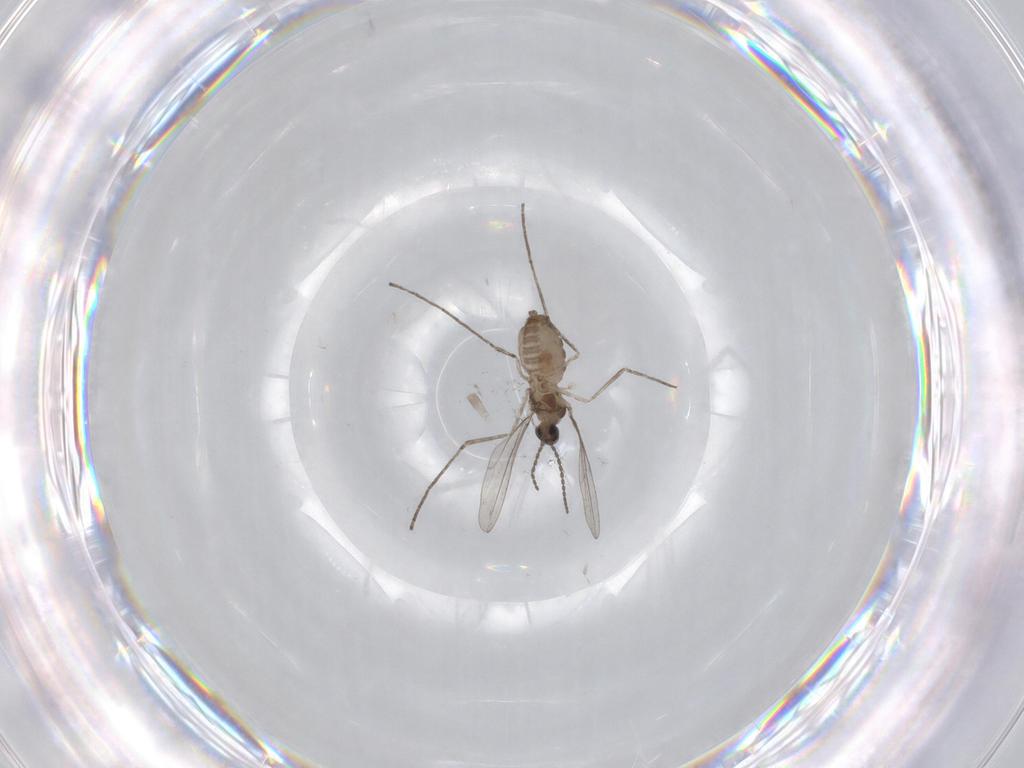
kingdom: Animalia
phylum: Arthropoda
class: Insecta
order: Diptera
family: Cecidomyiidae
